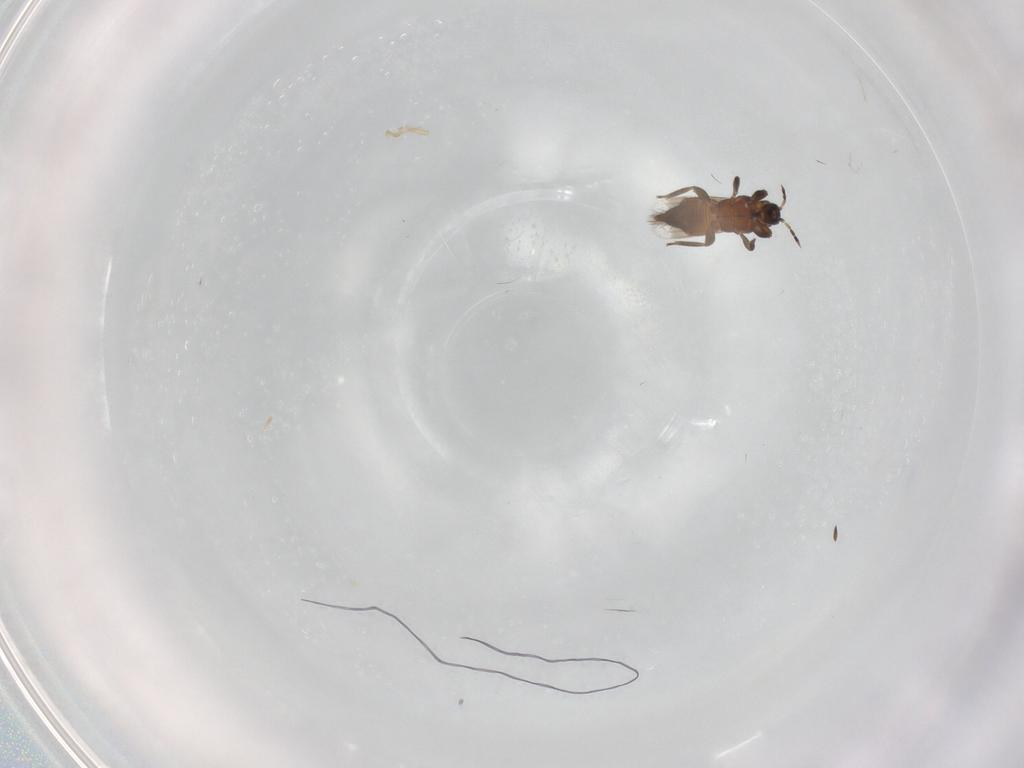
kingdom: Animalia
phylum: Arthropoda
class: Insecta
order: Thysanoptera
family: Aeolothripidae
